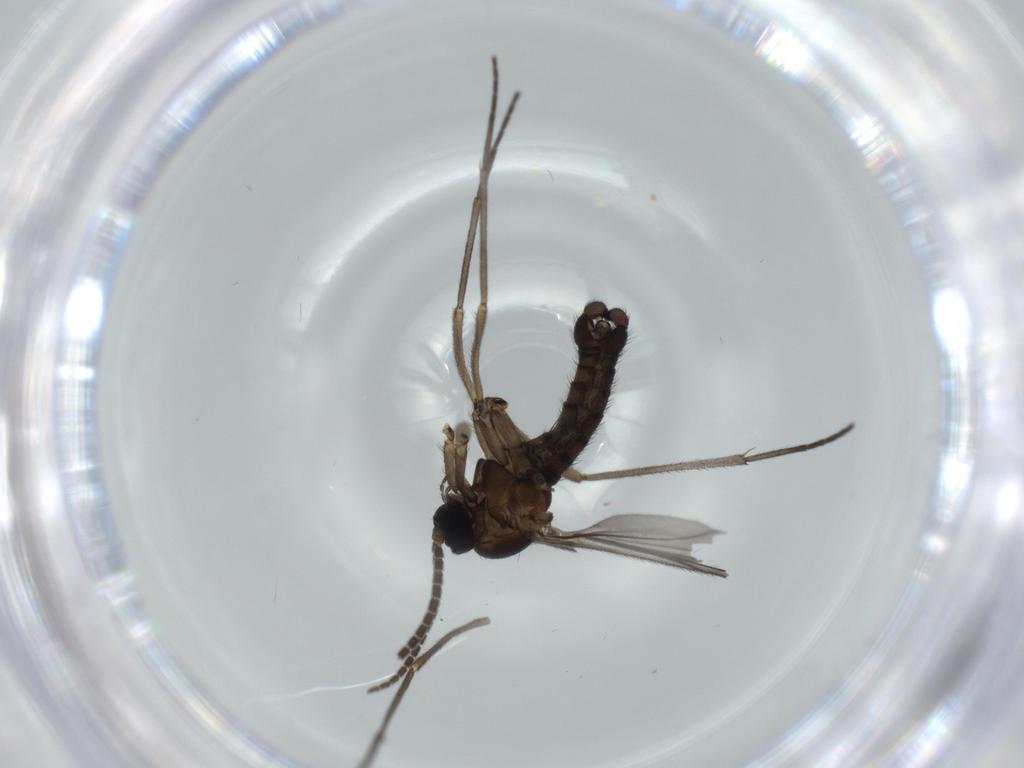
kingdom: Animalia
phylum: Arthropoda
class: Insecta
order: Diptera
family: Sciaridae
